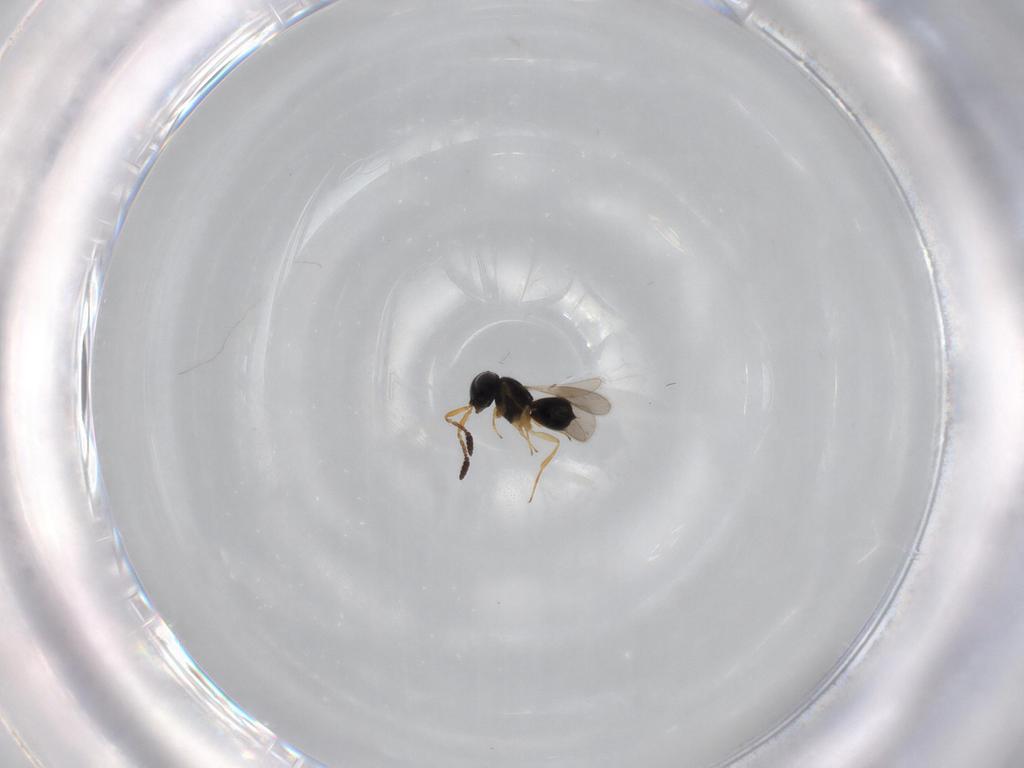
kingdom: Animalia
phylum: Arthropoda
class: Insecta
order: Hymenoptera
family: Scelionidae
